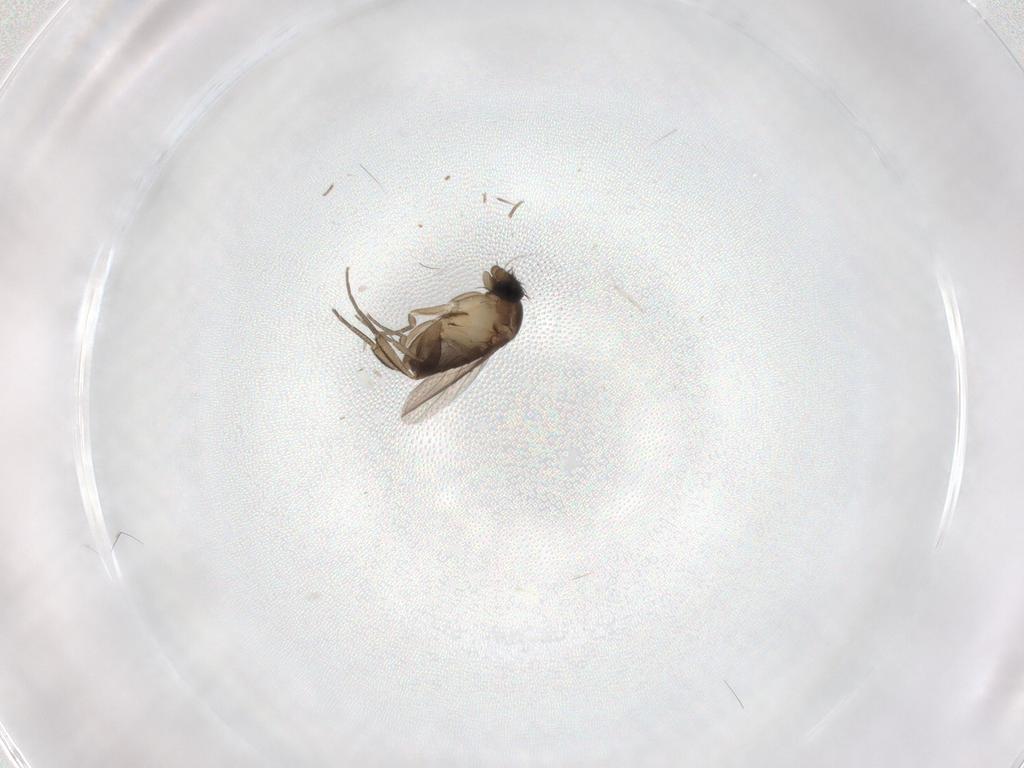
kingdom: Animalia
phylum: Arthropoda
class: Insecta
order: Diptera
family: Phoridae
